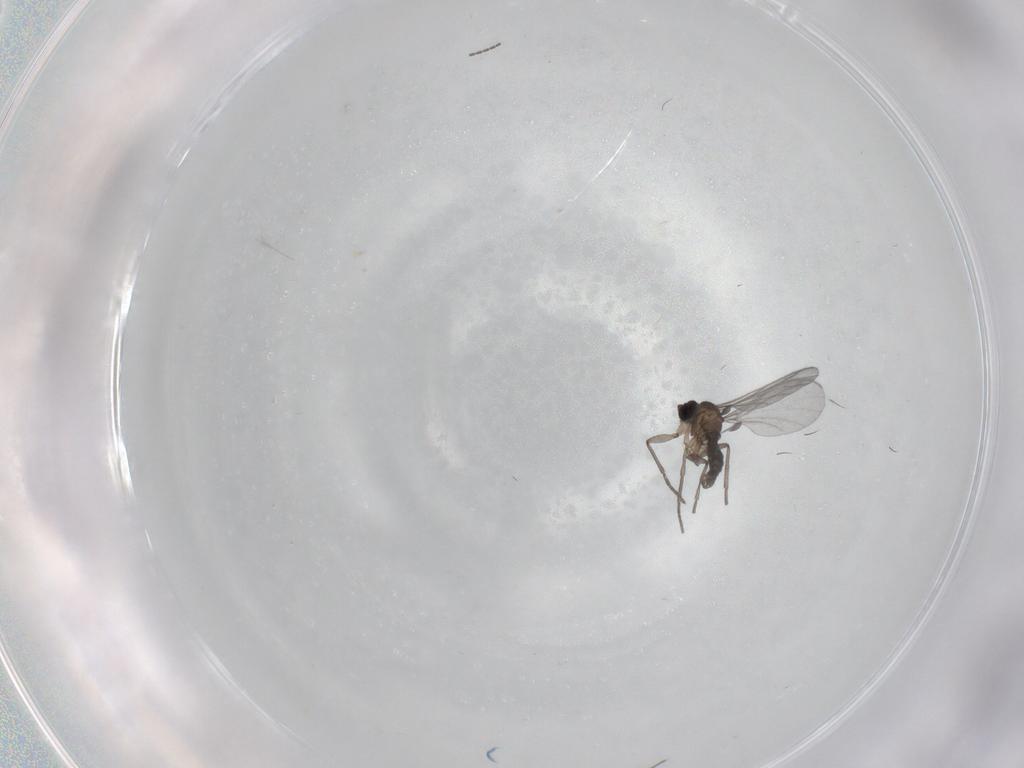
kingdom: Animalia
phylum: Arthropoda
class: Insecta
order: Diptera
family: Sciaridae
